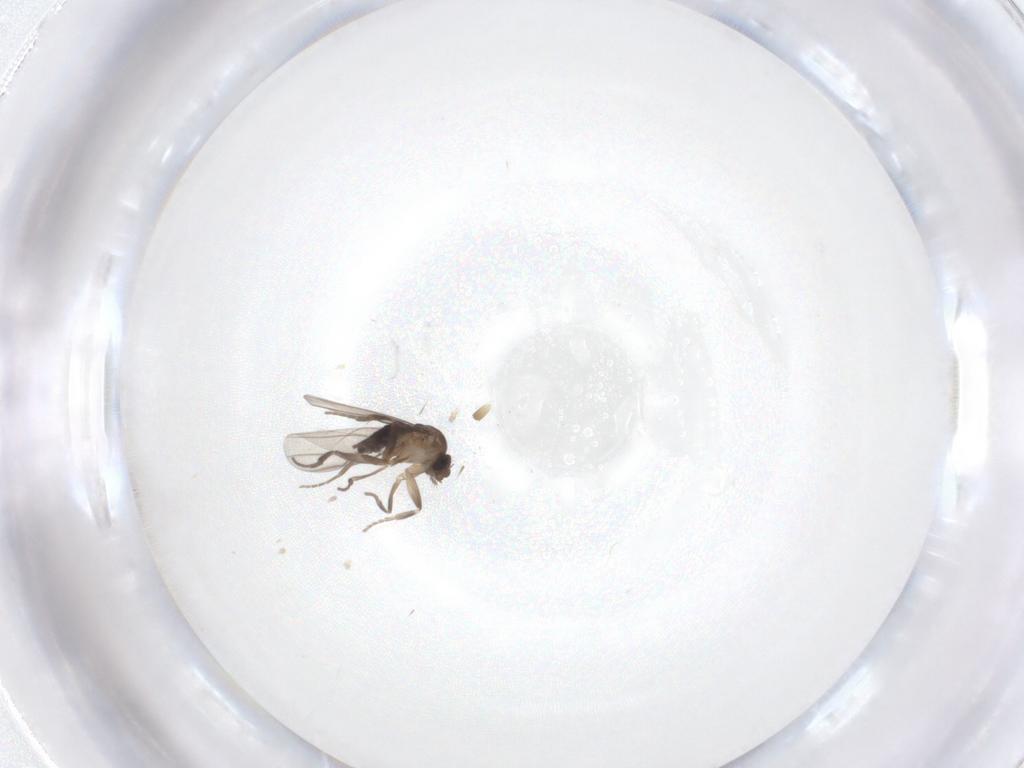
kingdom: Animalia
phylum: Arthropoda
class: Insecta
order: Diptera
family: Phoridae
